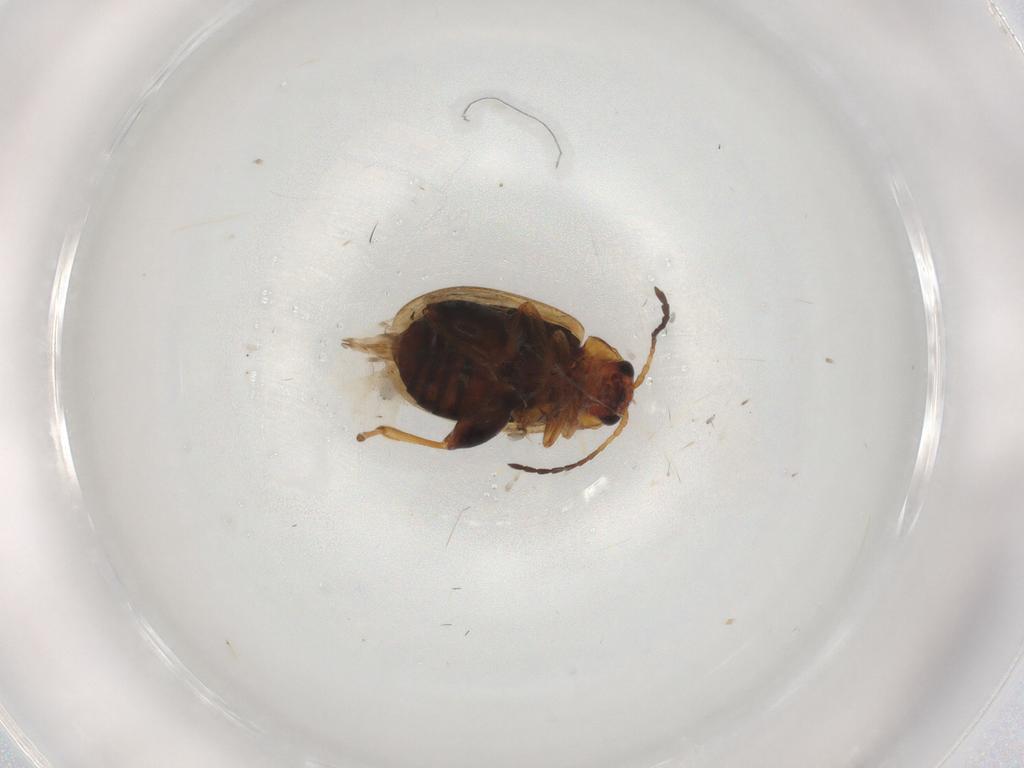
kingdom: Animalia
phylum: Arthropoda
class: Insecta
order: Coleoptera
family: Chrysomelidae
